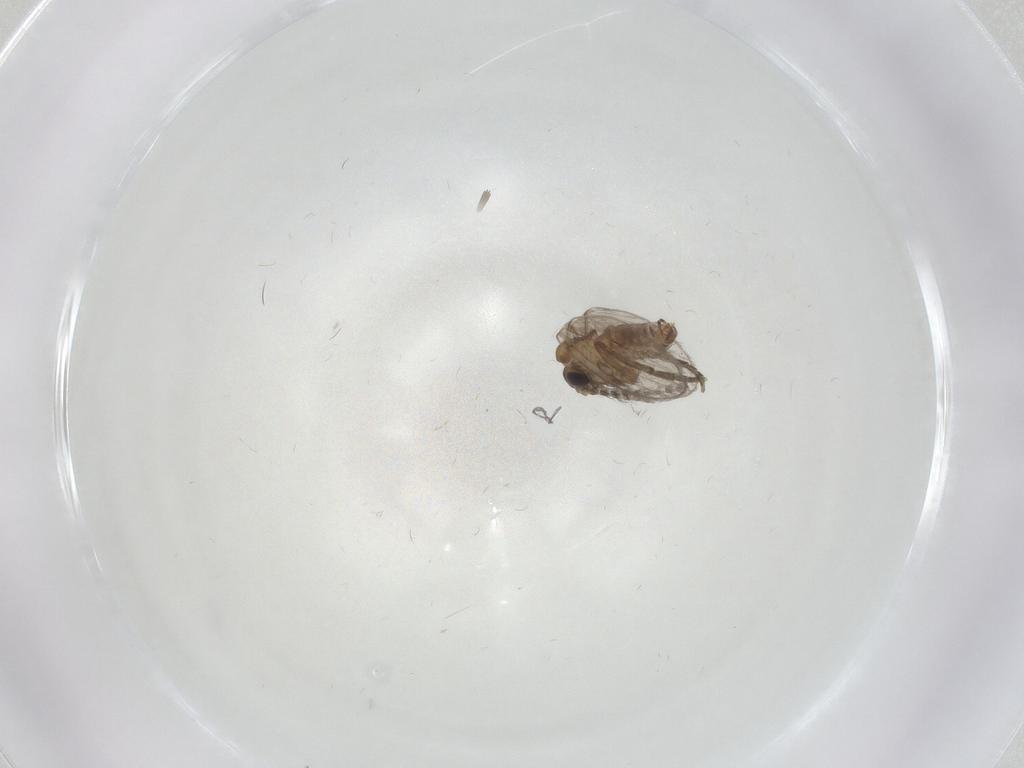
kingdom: Animalia
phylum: Arthropoda
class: Insecta
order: Diptera
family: Psychodidae
